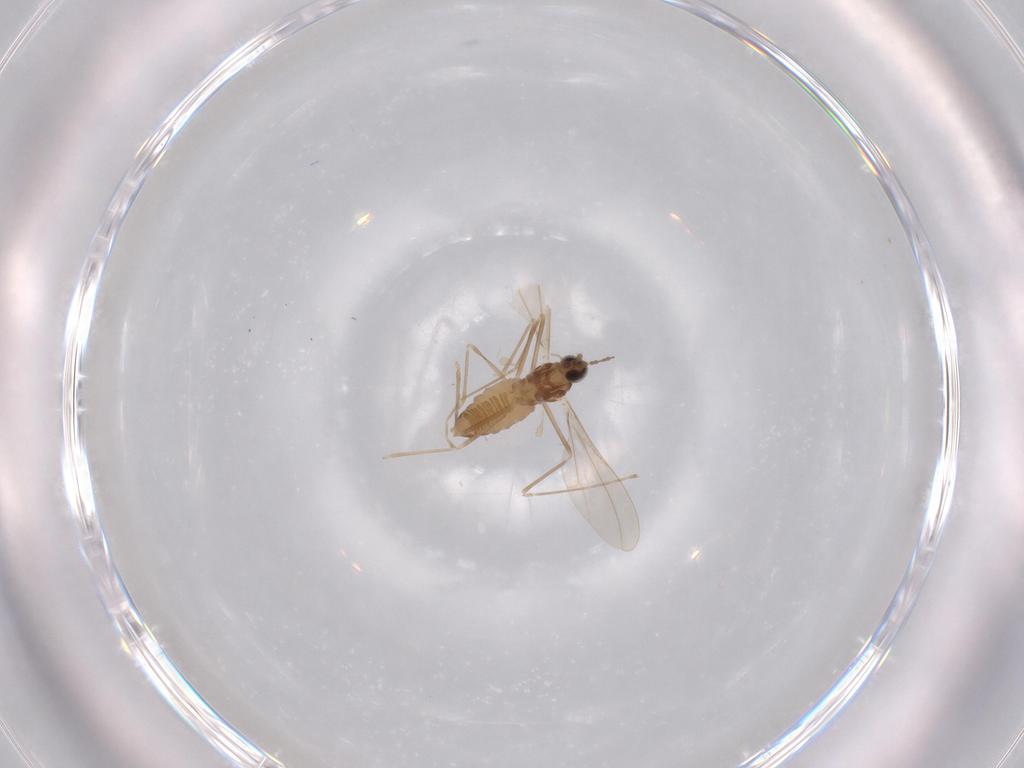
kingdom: Animalia
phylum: Arthropoda
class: Insecta
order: Diptera
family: Cecidomyiidae
